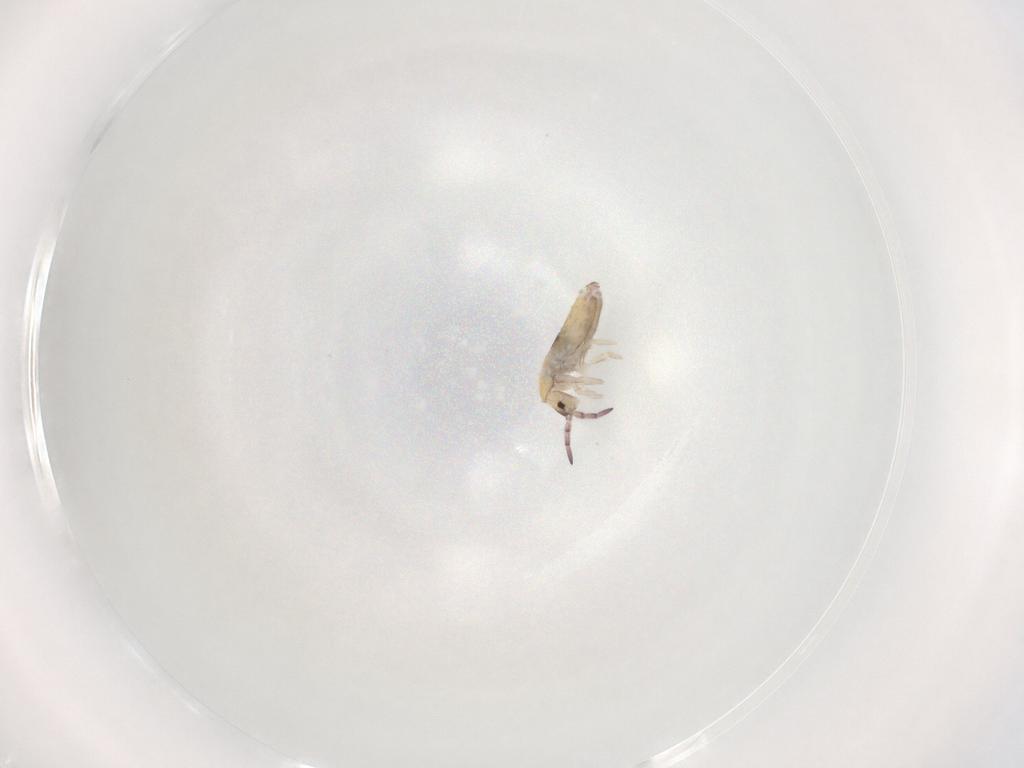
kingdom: Animalia
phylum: Arthropoda
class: Collembola
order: Entomobryomorpha
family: Entomobryidae
